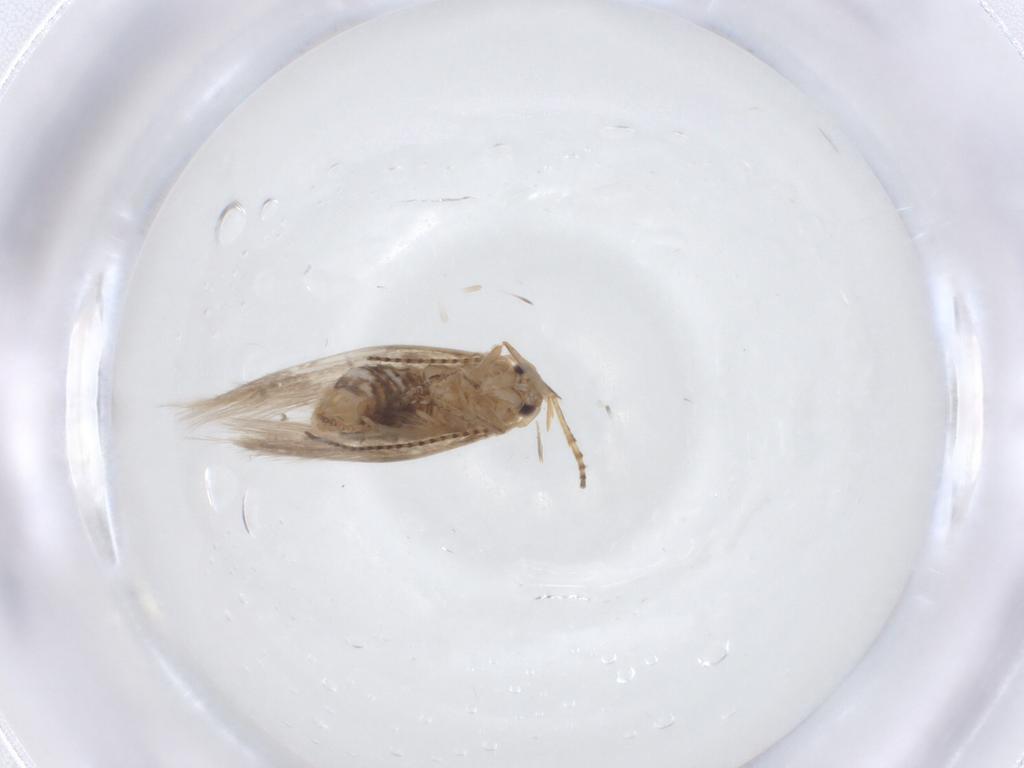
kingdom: Animalia
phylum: Arthropoda
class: Insecta
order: Lepidoptera
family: Bucculatricidae
